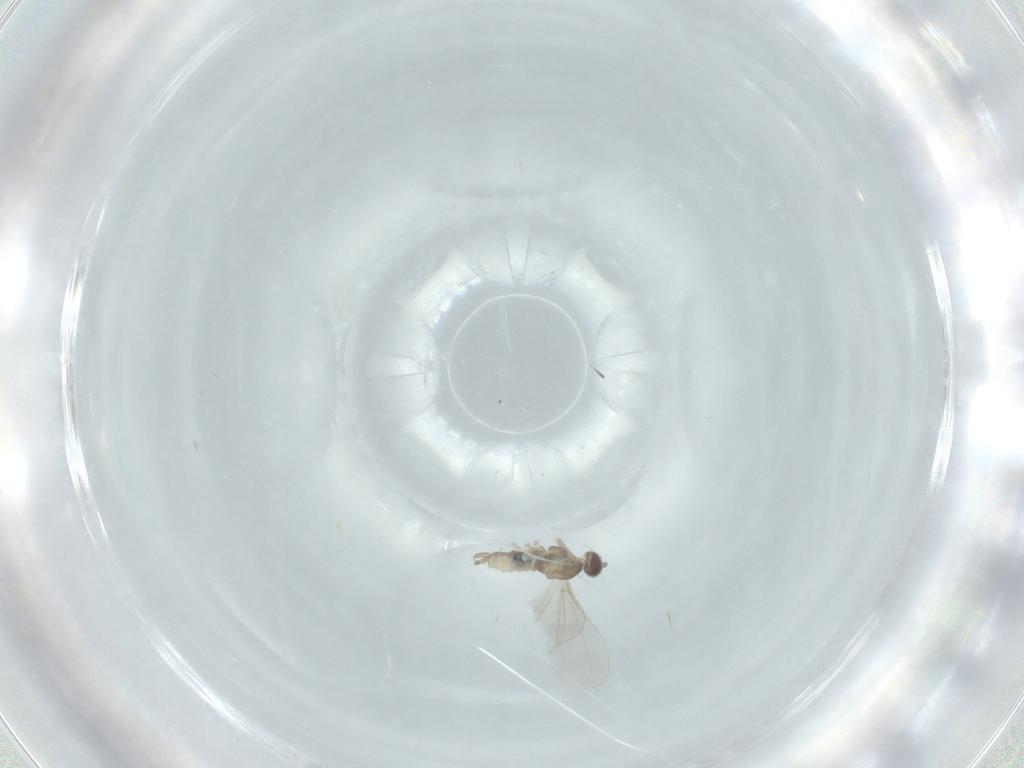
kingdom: Animalia
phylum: Arthropoda
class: Insecta
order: Diptera
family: Cecidomyiidae
